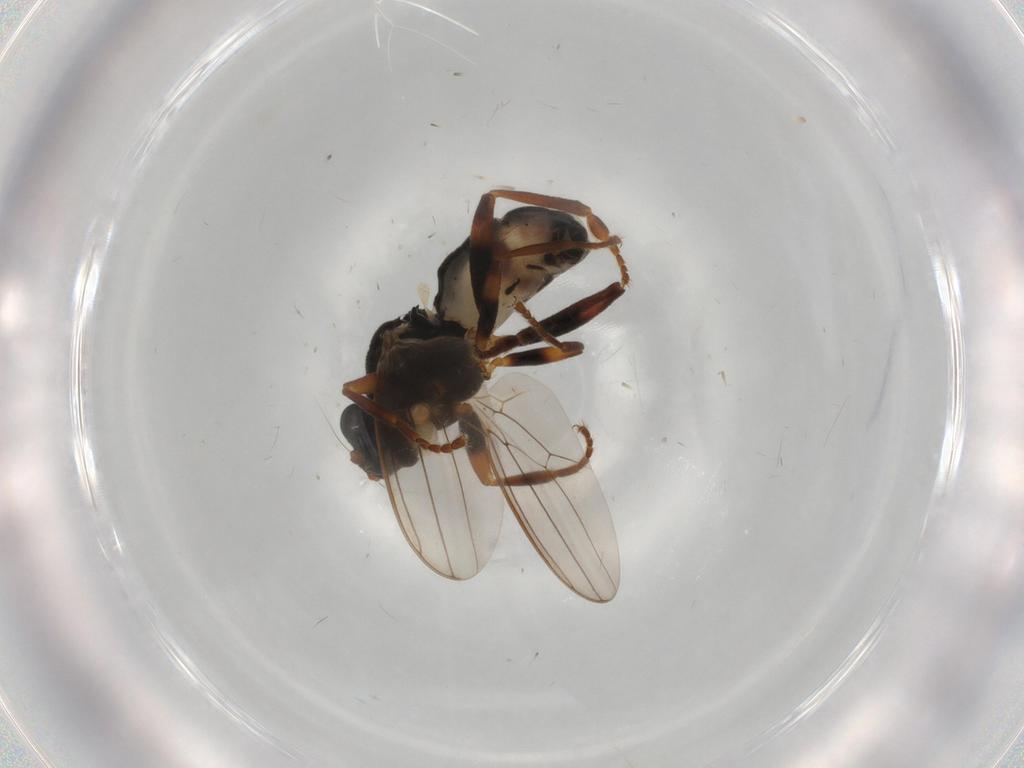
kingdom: Animalia
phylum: Arthropoda
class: Insecta
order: Diptera
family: Sphaeroceridae
